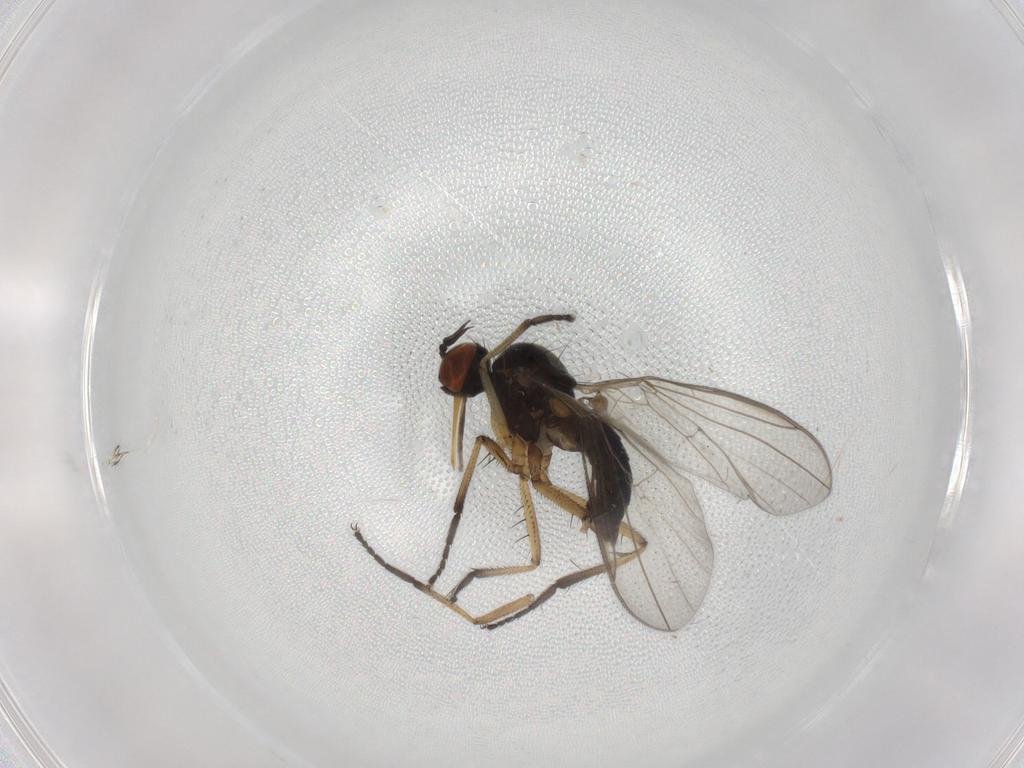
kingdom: Animalia
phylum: Arthropoda
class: Insecta
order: Diptera
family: Empididae
